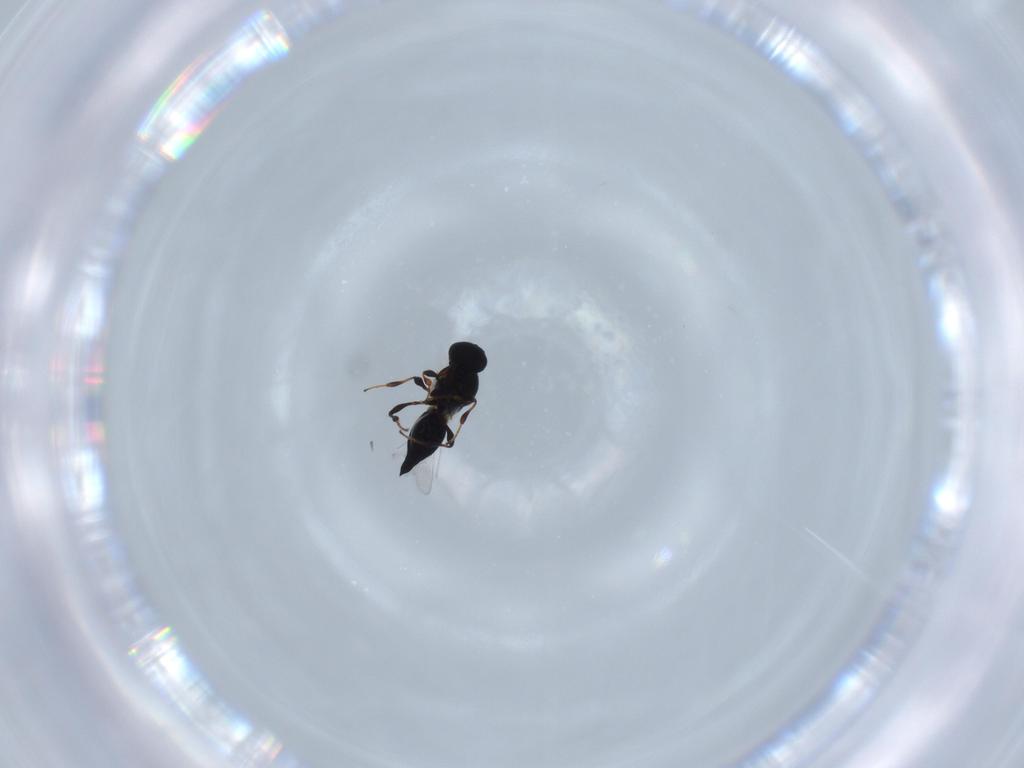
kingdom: Animalia
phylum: Arthropoda
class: Insecta
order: Hymenoptera
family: Platygastridae
